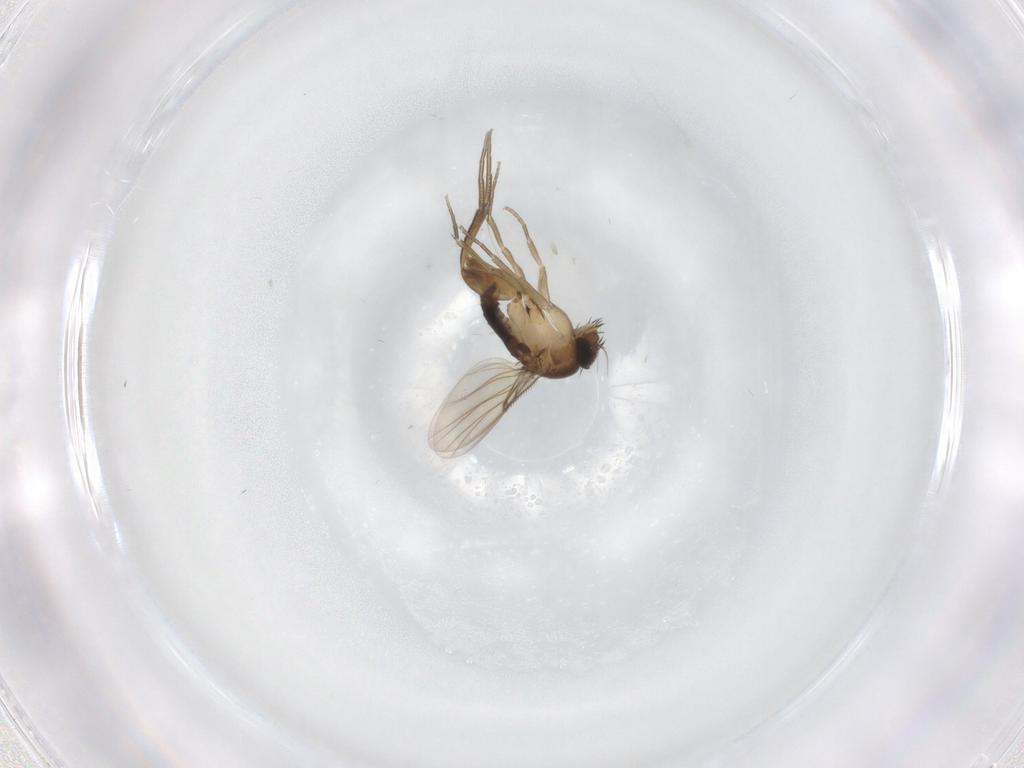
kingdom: Animalia
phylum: Arthropoda
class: Insecta
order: Diptera
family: Phoridae
